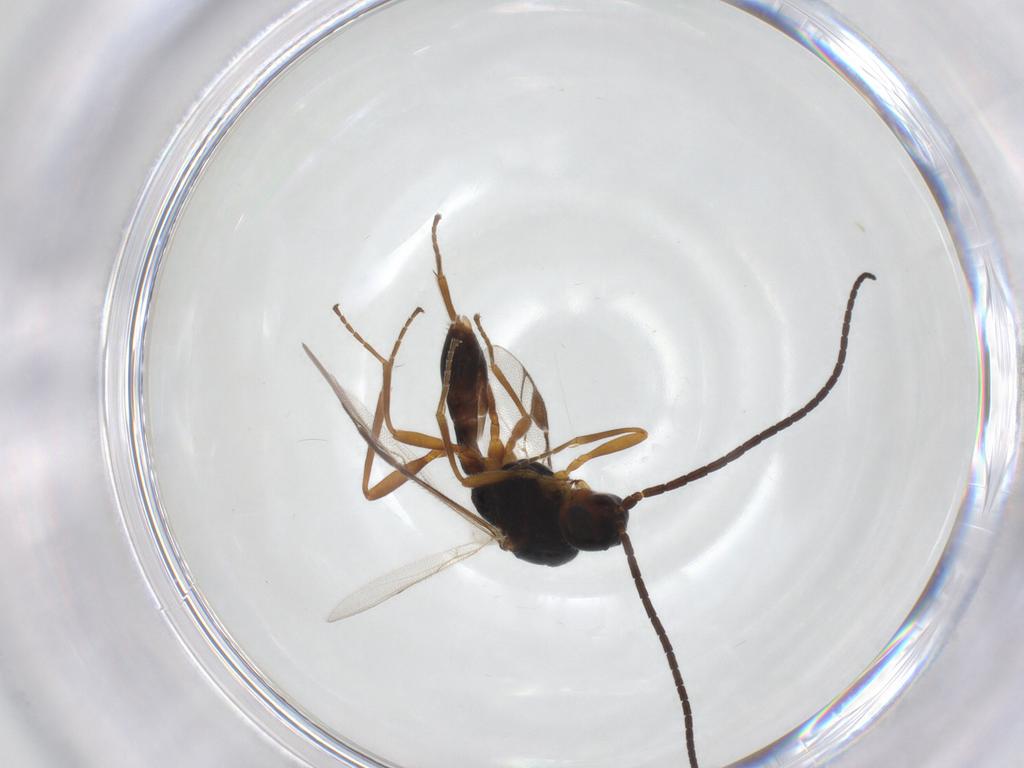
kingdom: Animalia
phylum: Arthropoda
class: Insecta
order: Hymenoptera
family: Braconidae
